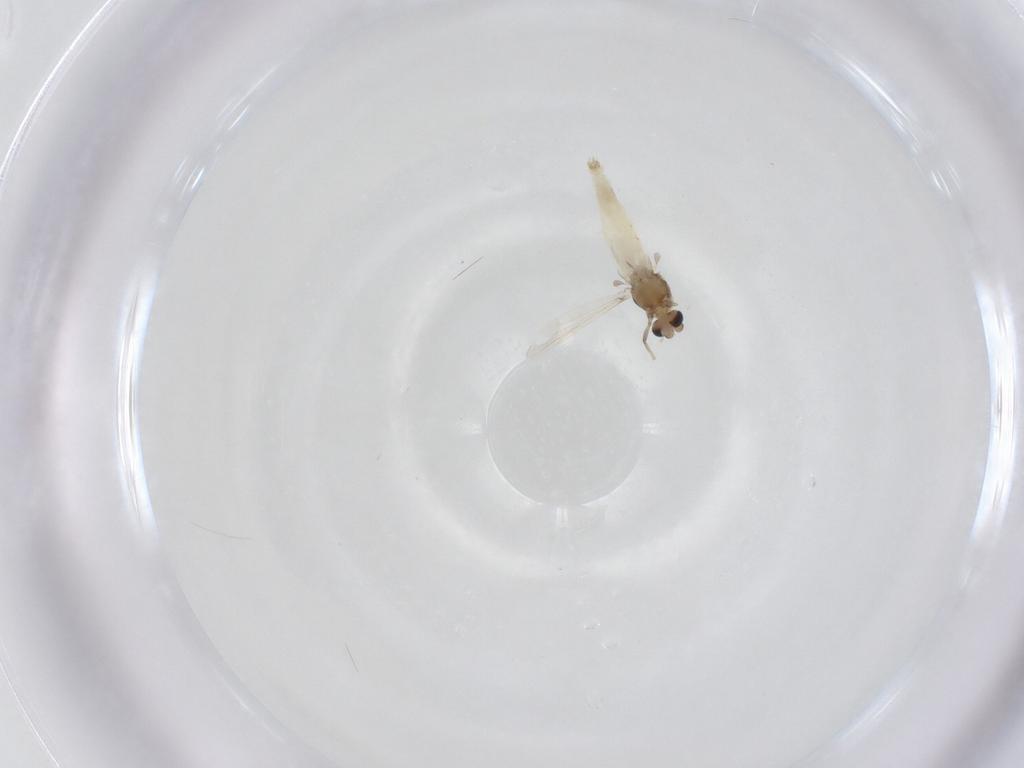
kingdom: Animalia
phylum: Arthropoda
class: Insecta
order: Diptera
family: Chironomidae
